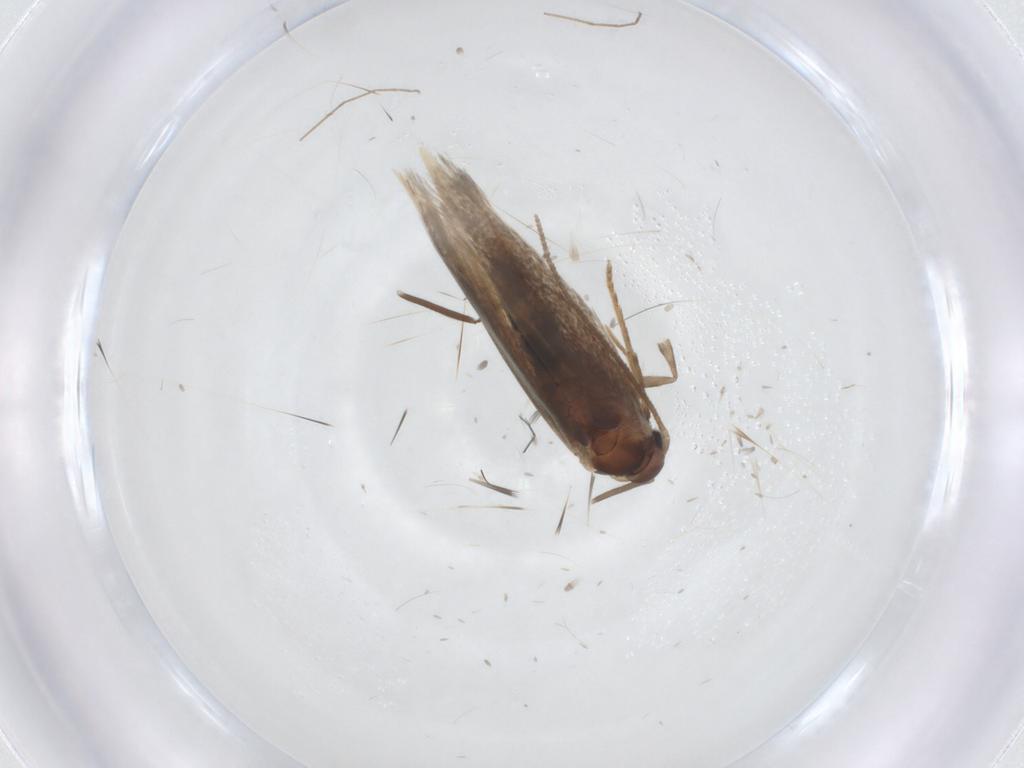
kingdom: Animalia
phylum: Arthropoda
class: Insecta
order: Lepidoptera
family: Elachistidae
